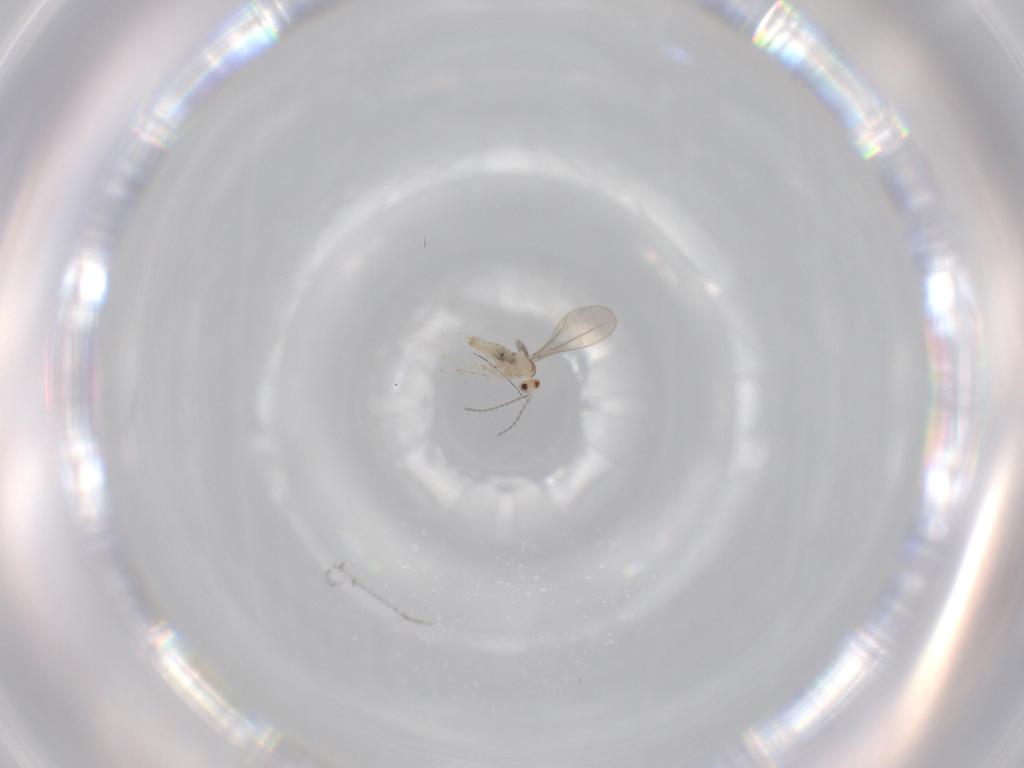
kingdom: Animalia
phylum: Arthropoda
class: Insecta
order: Diptera
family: Cecidomyiidae
